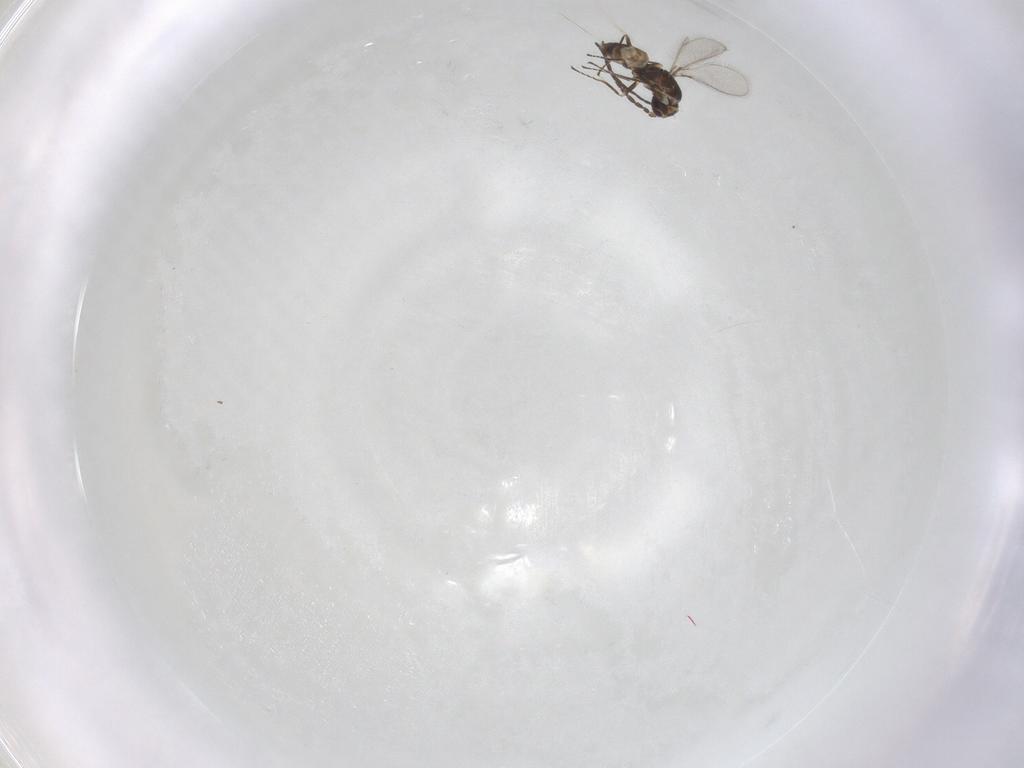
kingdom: Animalia
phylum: Arthropoda
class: Insecta
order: Hymenoptera
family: Mymaridae
